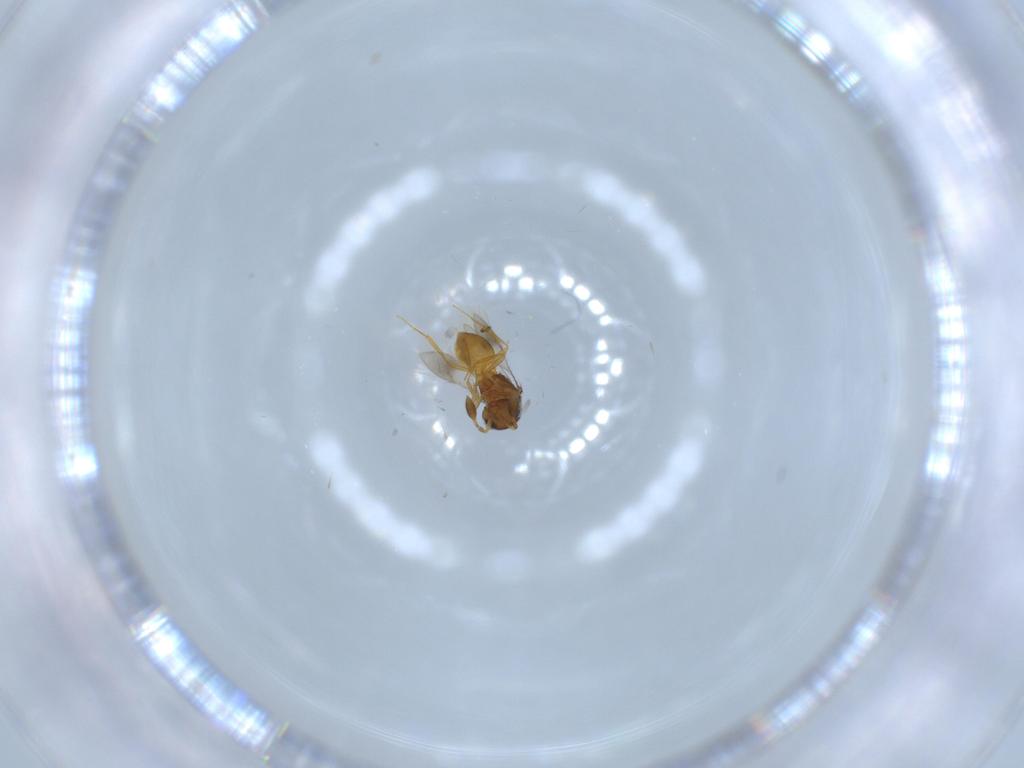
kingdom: Animalia
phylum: Arthropoda
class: Insecta
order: Hymenoptera
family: Scelionidae
